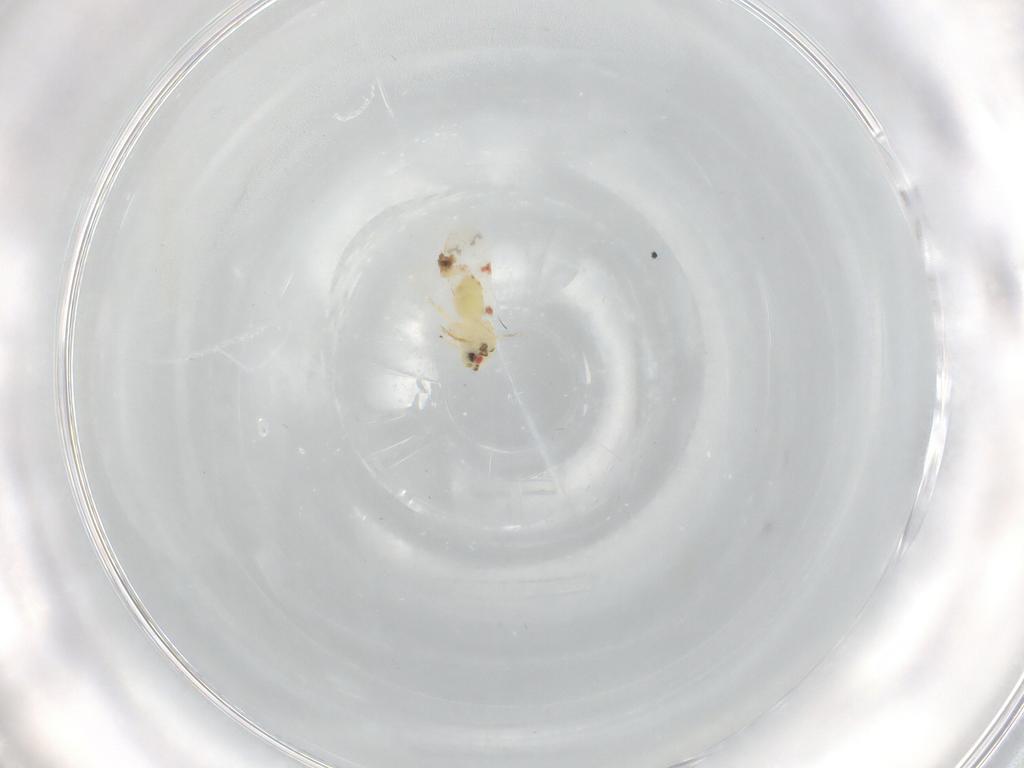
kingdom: Animalia
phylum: Arthropoda
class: Insecta
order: Hemiptera
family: Aleyrodidae
